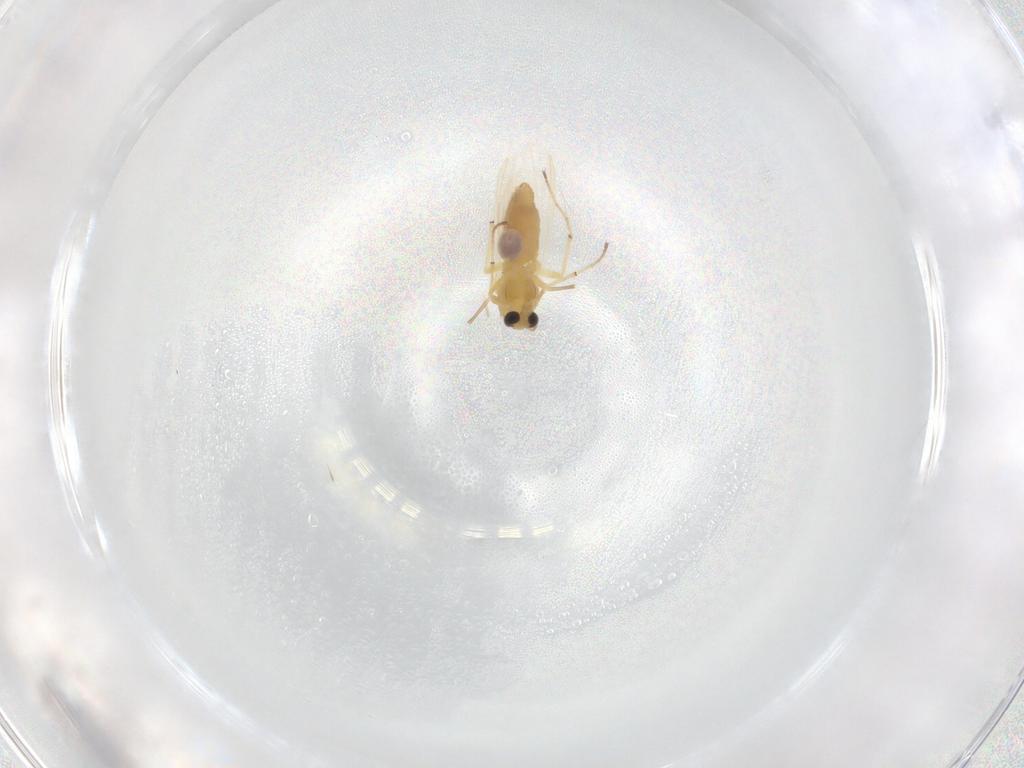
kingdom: Animalia
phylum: Arthropoda
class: Insecta
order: Diptera
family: Chironomidae
